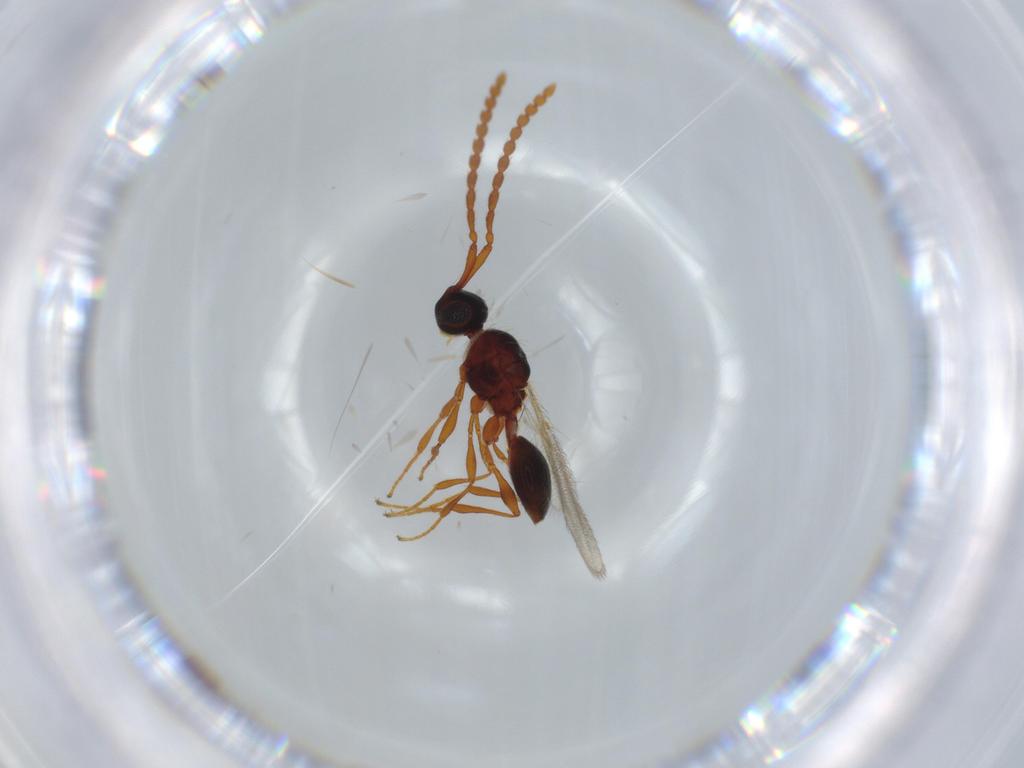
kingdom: Animalia
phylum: Arthropoda
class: Insecta
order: Hymenoptera
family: Diapriidae
